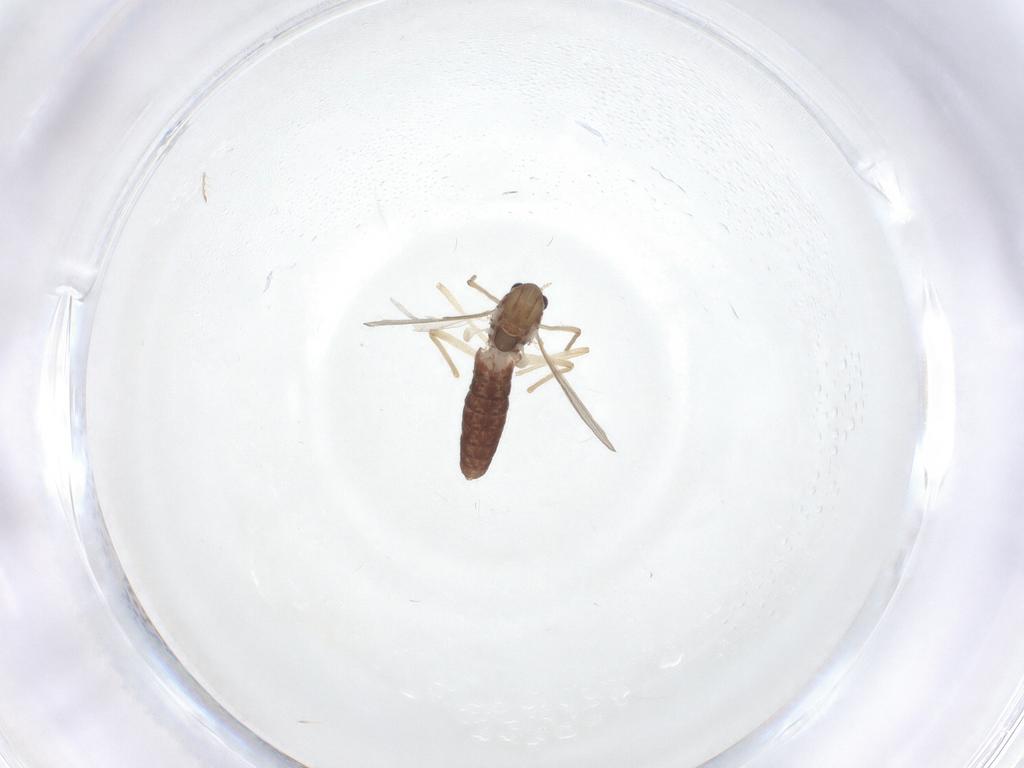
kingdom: Animalia
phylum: Arthropoda
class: Insecta
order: Diptera
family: Chironomidae
